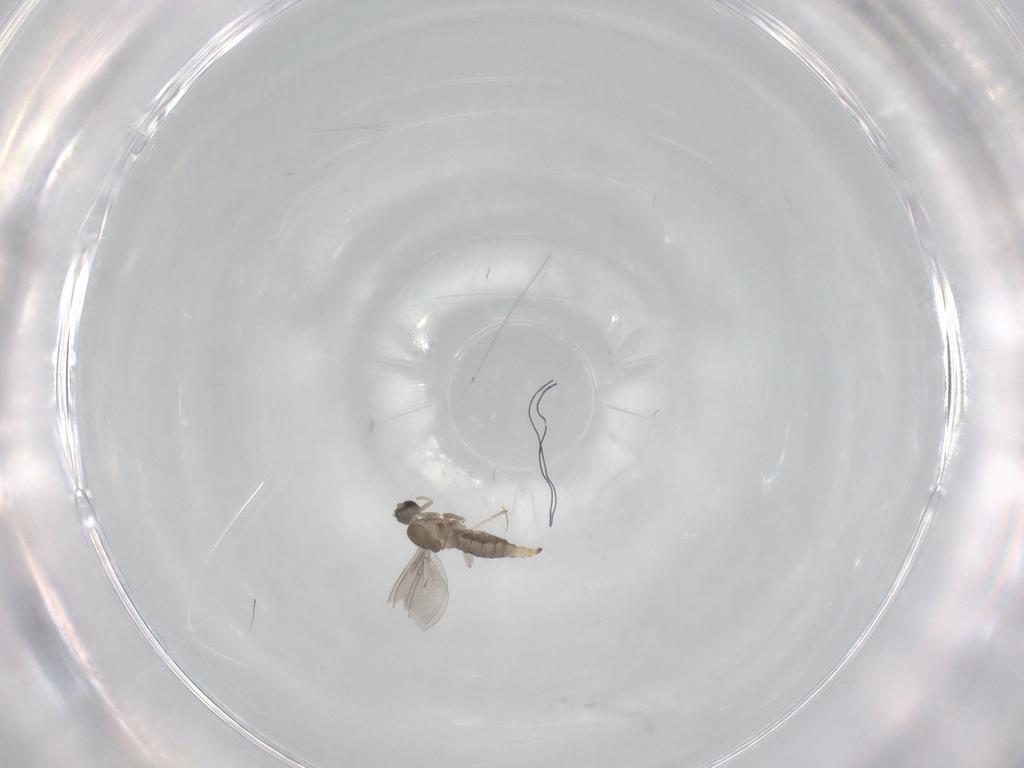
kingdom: Animalia
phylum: Arthropoda
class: Insecta
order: Diptera
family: Cecidomyiidae
